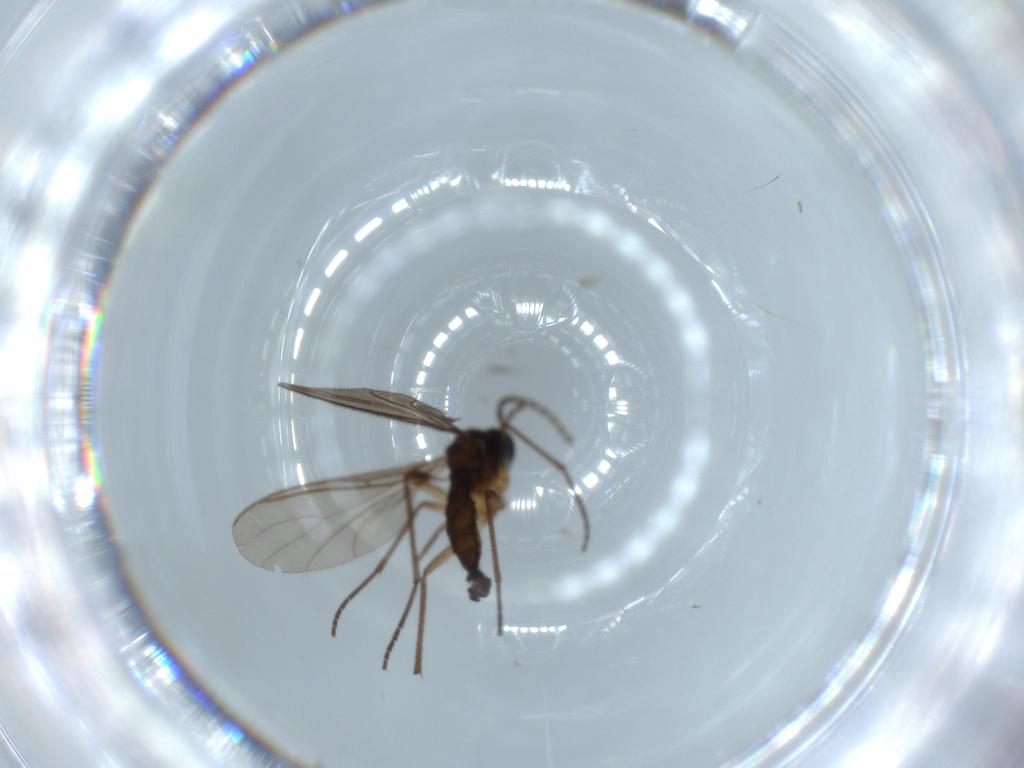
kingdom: Animalia
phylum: Arthropoda
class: Insecta
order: Diptera
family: Sciaridae
